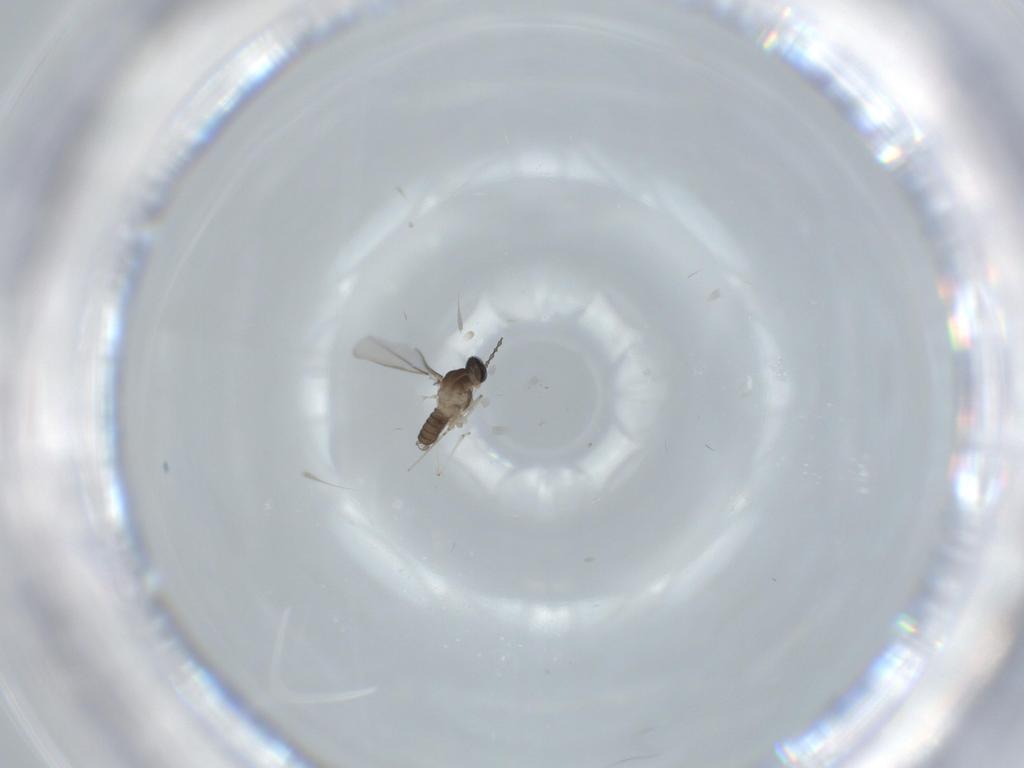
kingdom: Animalia
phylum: Arthropoda
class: Insecta
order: Diptera
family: Cecidomyiidae
